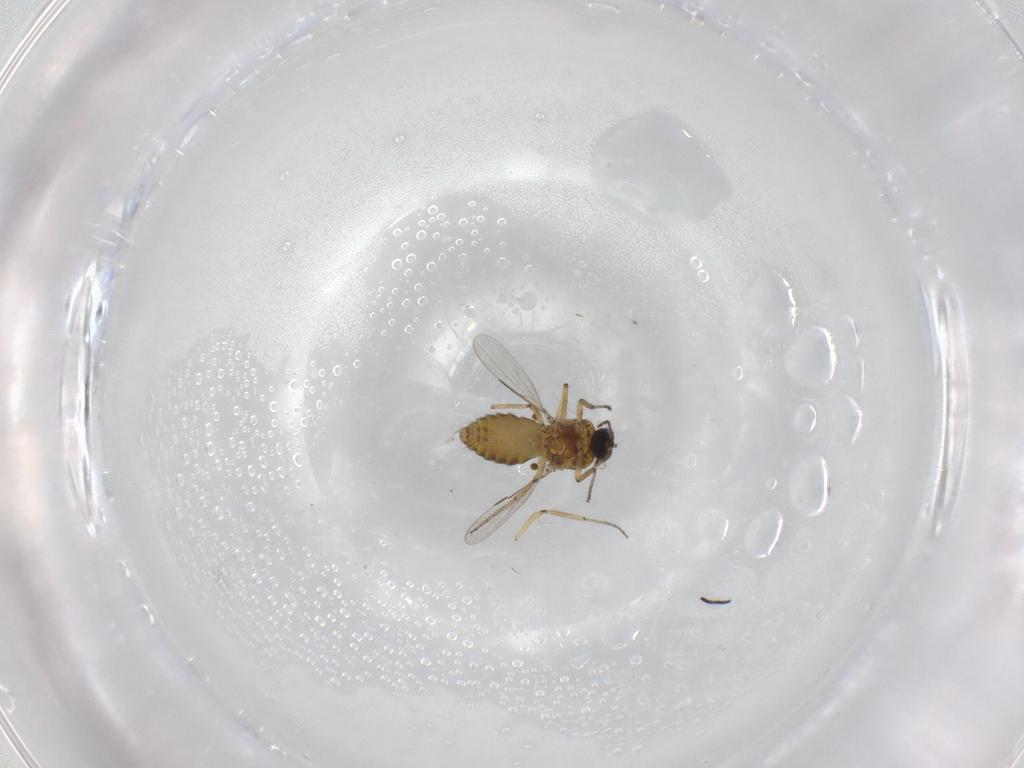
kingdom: Animalia
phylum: Arthropoda
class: Insecta
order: Diptera
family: Ceratopogonidae
